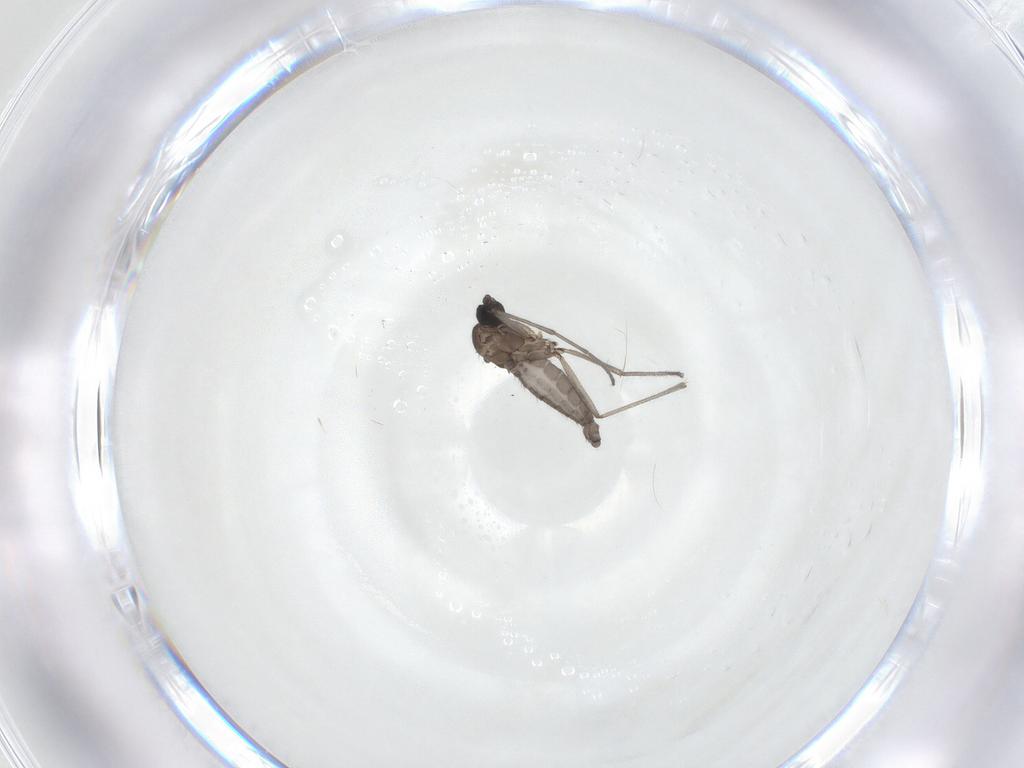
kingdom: Animalia
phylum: Arthropoda
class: Insecta
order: Diptera
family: Sciaridae
